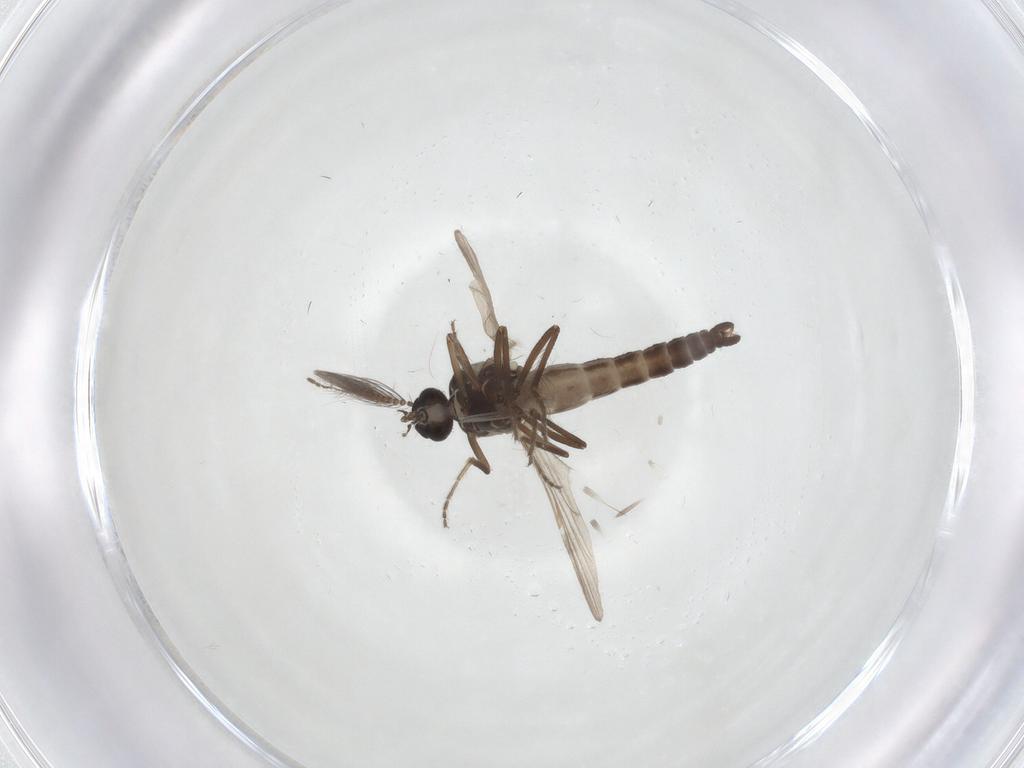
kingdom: Animalia
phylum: Arthropoda
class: Insecta
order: Diptera
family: Ceratopogonidae
